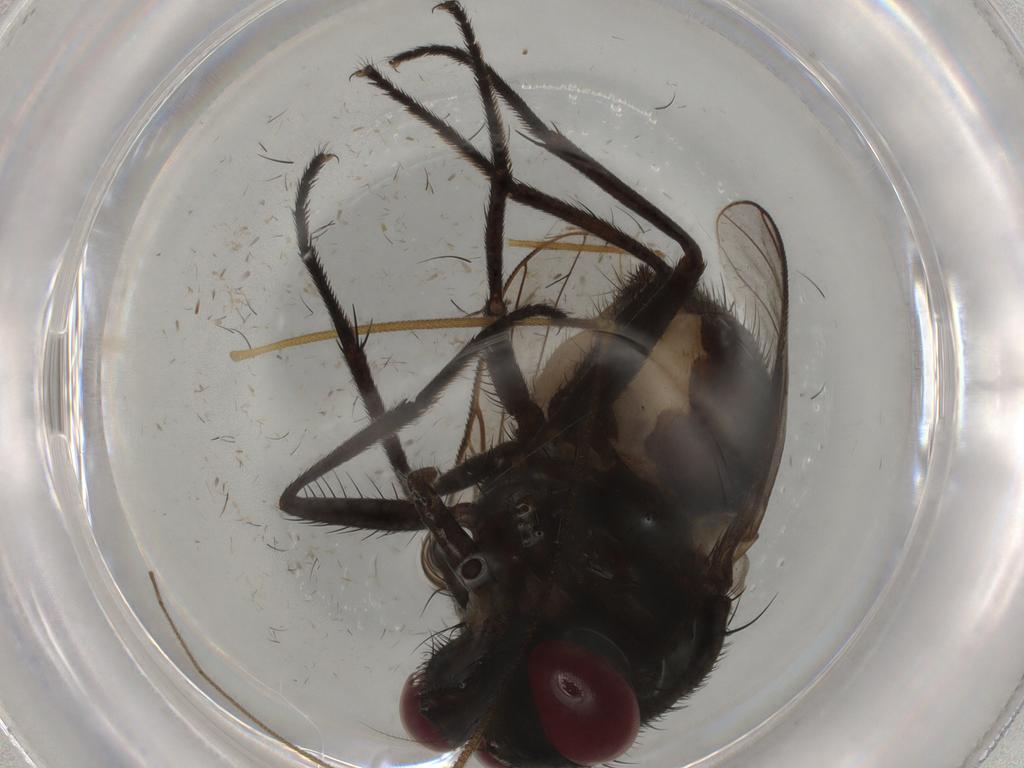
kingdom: Animalia
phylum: Arthropoda
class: Insecta
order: Diptera
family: Muscidae
